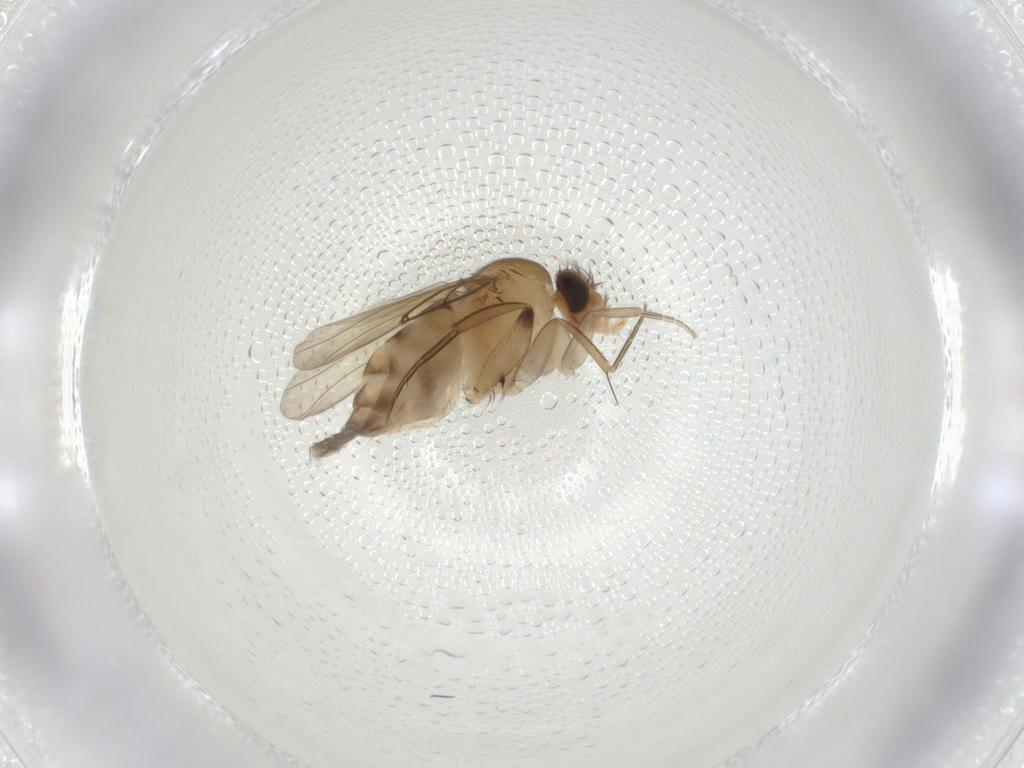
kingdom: Animalia
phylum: Arthropoda
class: Insecta
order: Diptera
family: Phoridae
